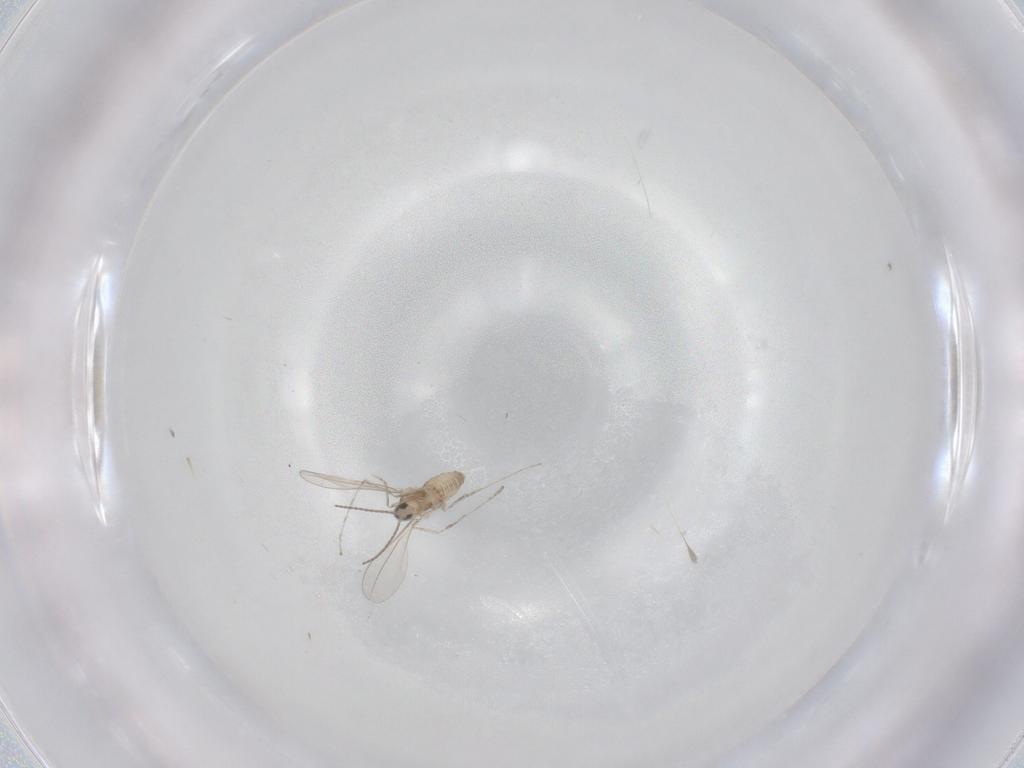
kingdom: Animalia
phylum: Arthropoda
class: Insecta
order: Diptera
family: Cecidomyiidae
